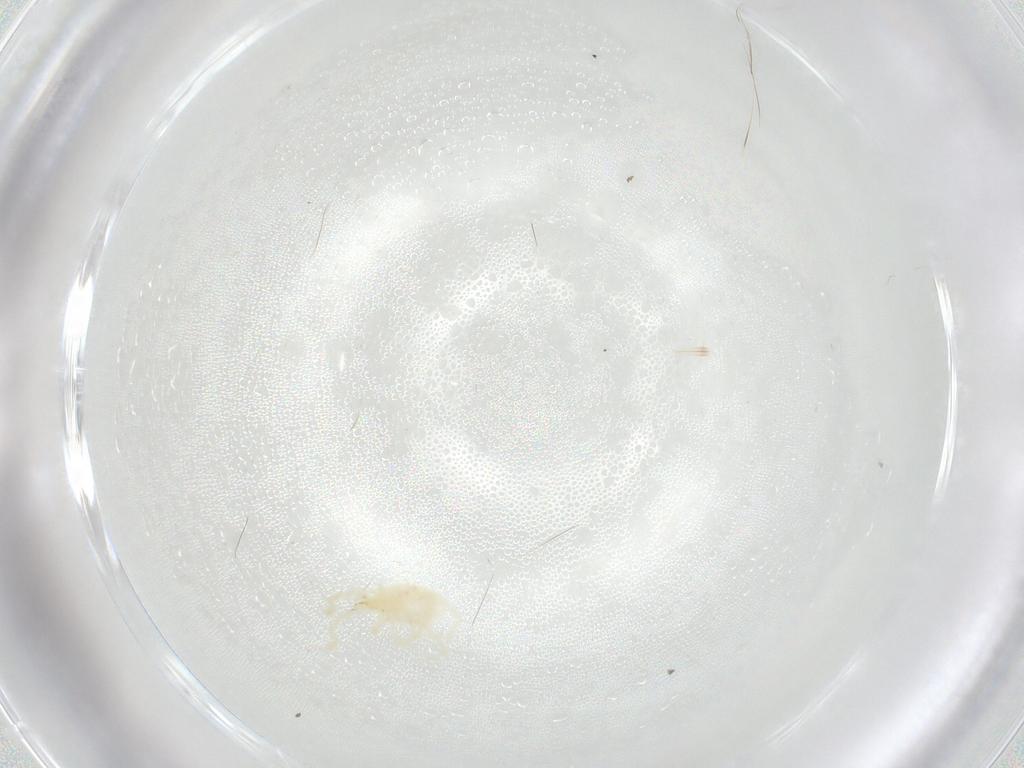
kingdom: Animalia
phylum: Arthropoda
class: Arachnida
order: Trombidiformes
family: Erythraeidae
